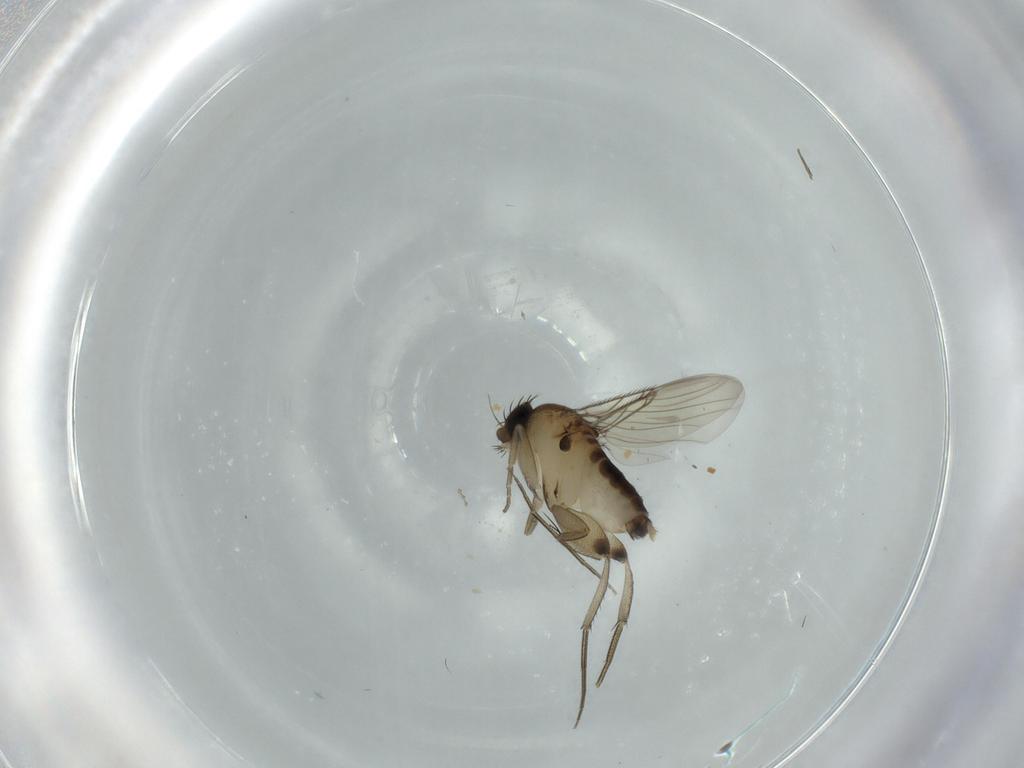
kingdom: Animalia
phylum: Arthropoda
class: Insecta
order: Diptera
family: Phoridae
